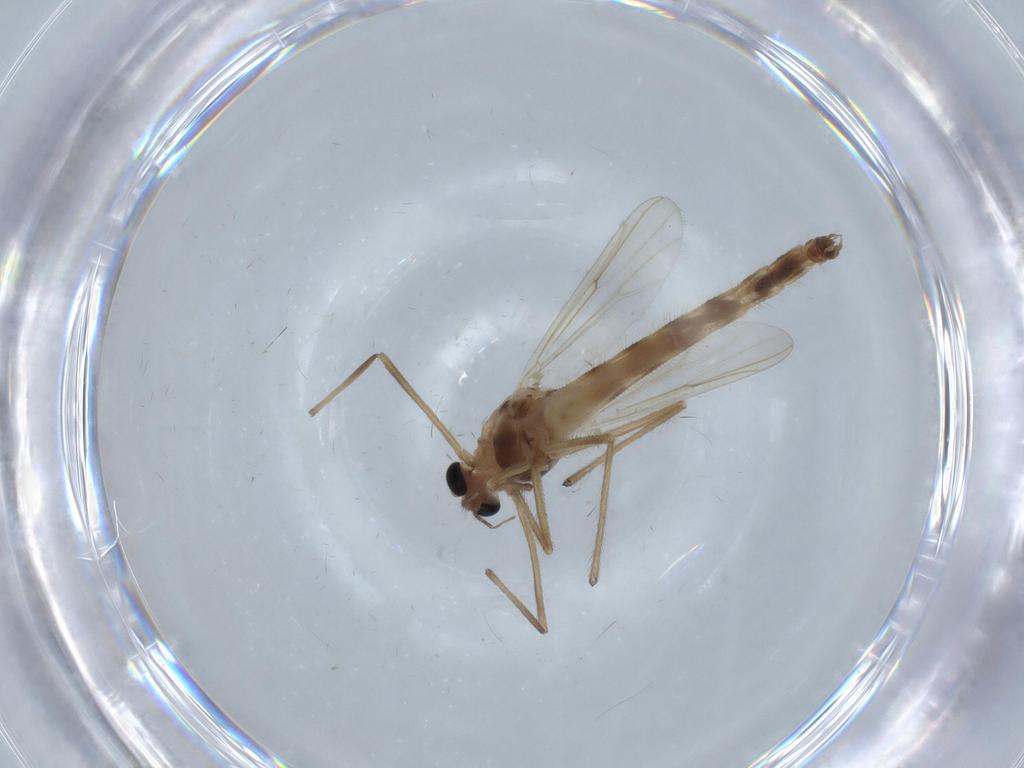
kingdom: Animalia
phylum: Arthropoda
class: Insecta
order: Diptera
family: Chironomidae
